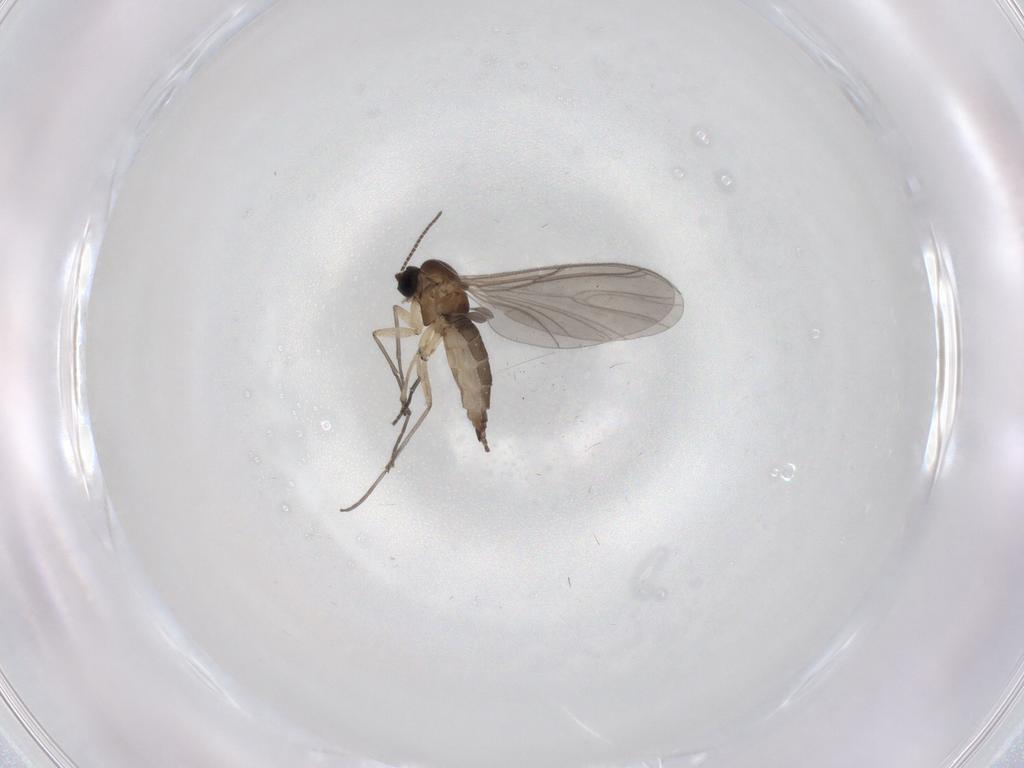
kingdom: Animalia
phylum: Arthropoda
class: Insecta
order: Diptera
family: Sciaridae
